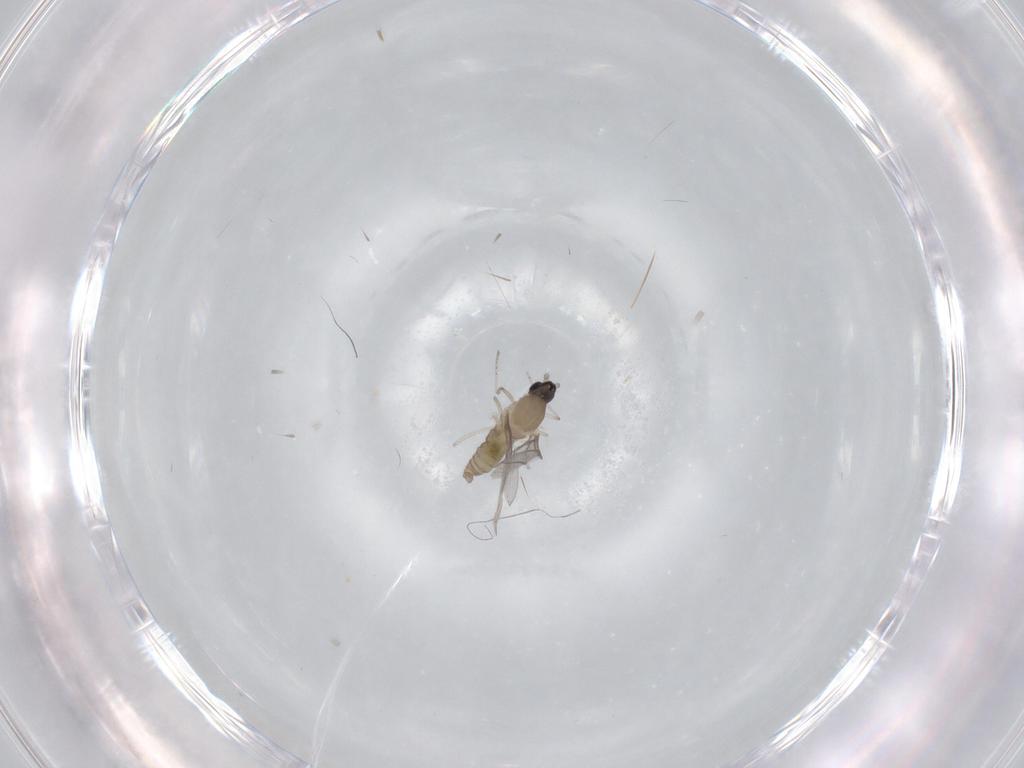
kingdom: Animalia
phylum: Arthropoda
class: Insecta
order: Diptera
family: Cecidomyiidae
